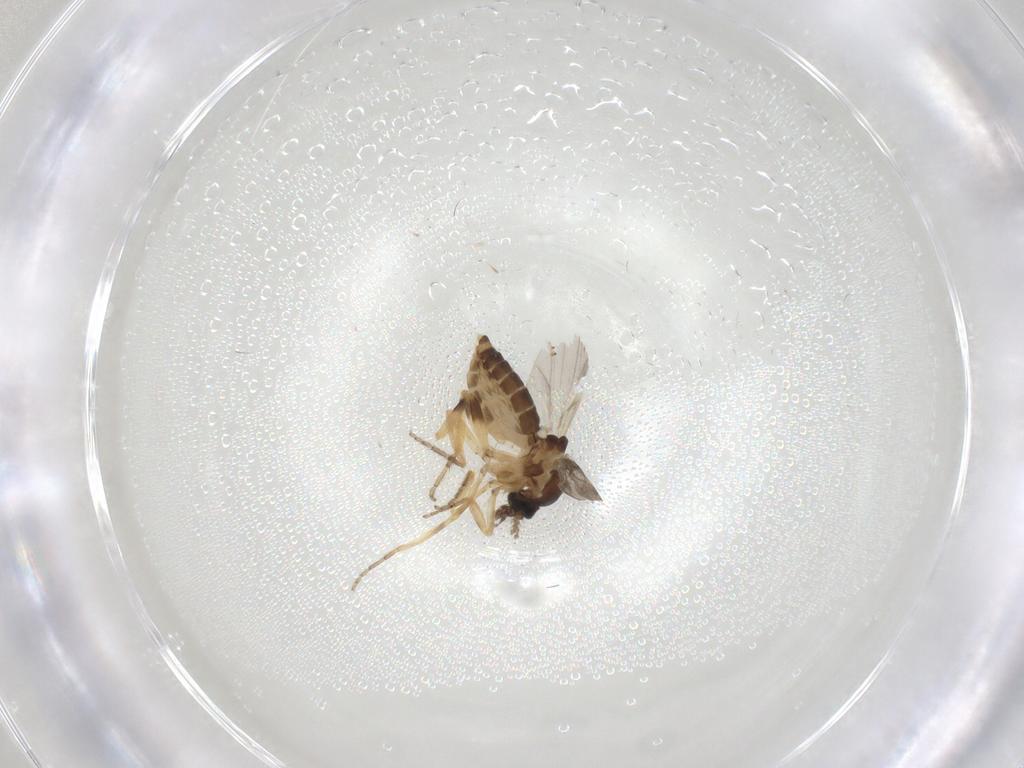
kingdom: Animalia
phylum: Arthropoda
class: Insecta
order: Diptera
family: Ceratopogonidae
